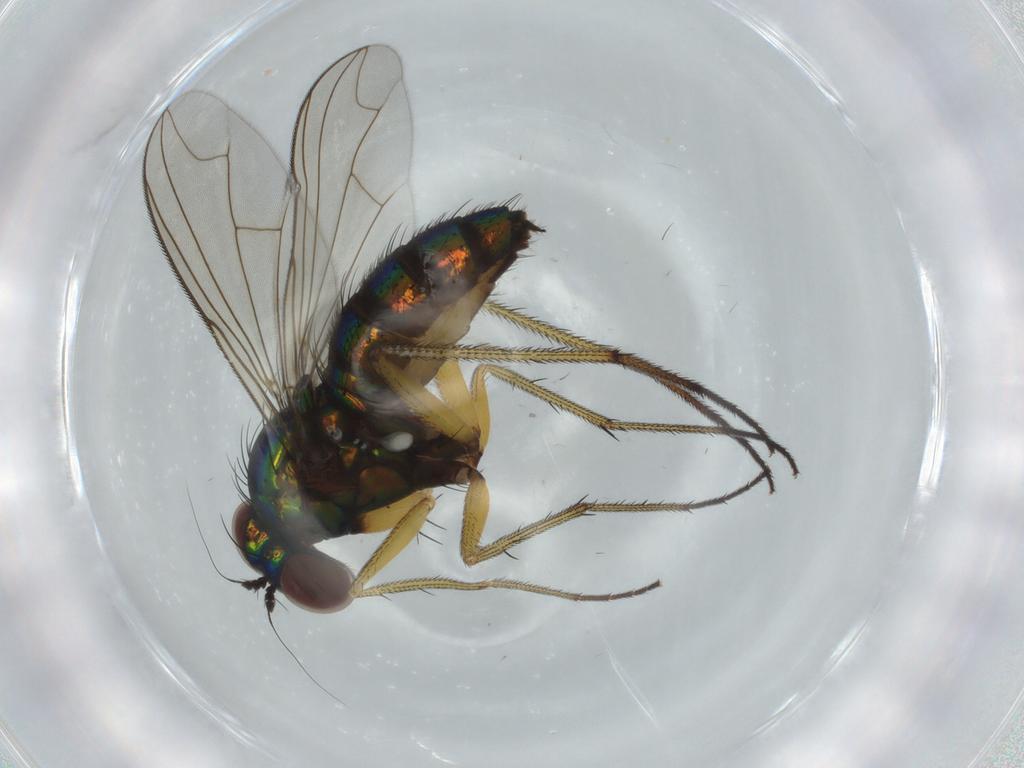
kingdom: Animalia
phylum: Arthropoda
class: Insecta
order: Diptera
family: Dolichopodidae
